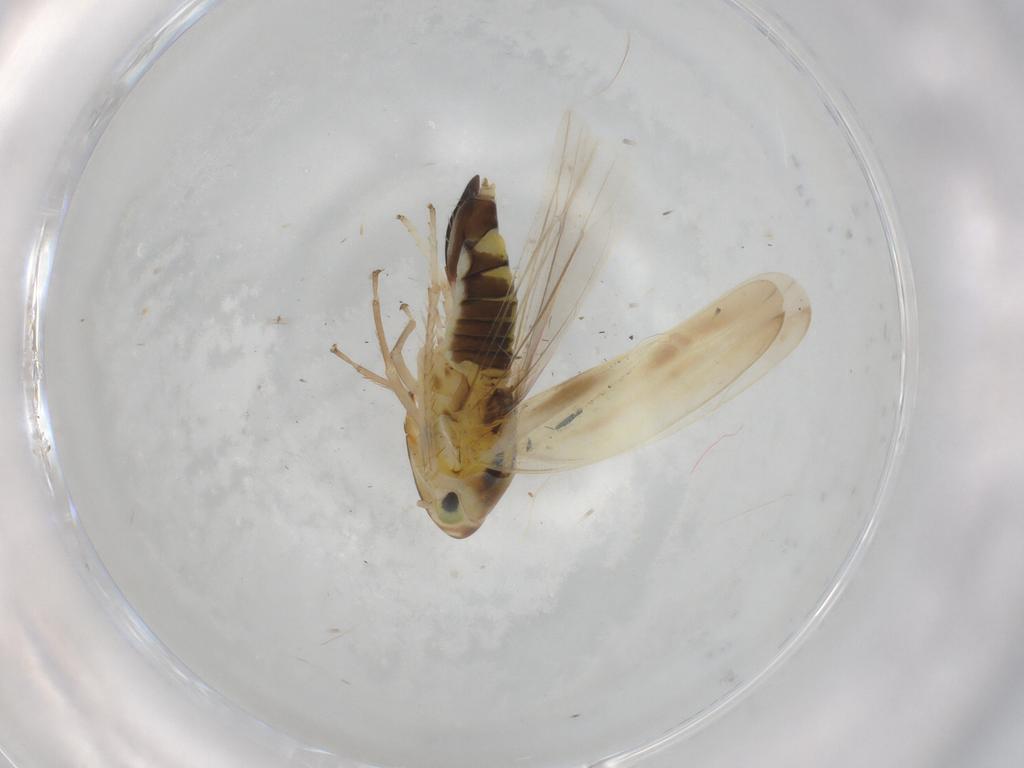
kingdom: Animalia
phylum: Arthropoda
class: Insecta
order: Hemiptera
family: Cicadellidae
